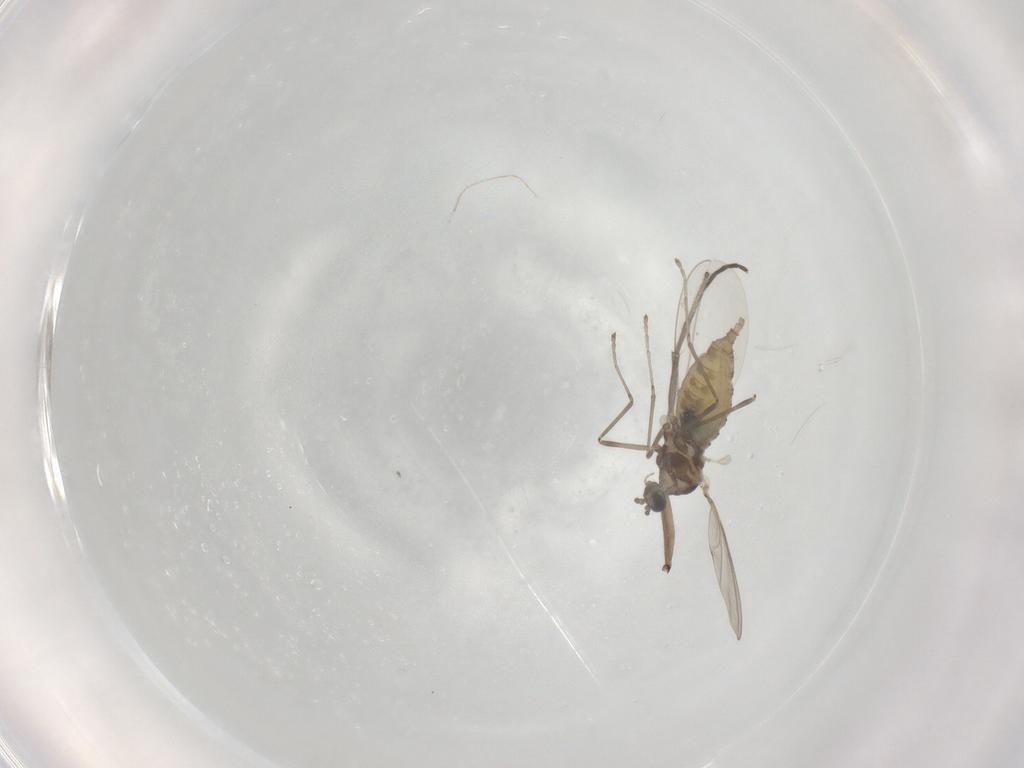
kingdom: Animalia
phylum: Arthropoda
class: Insecta
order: Diptera
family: Cecidomyiidae
